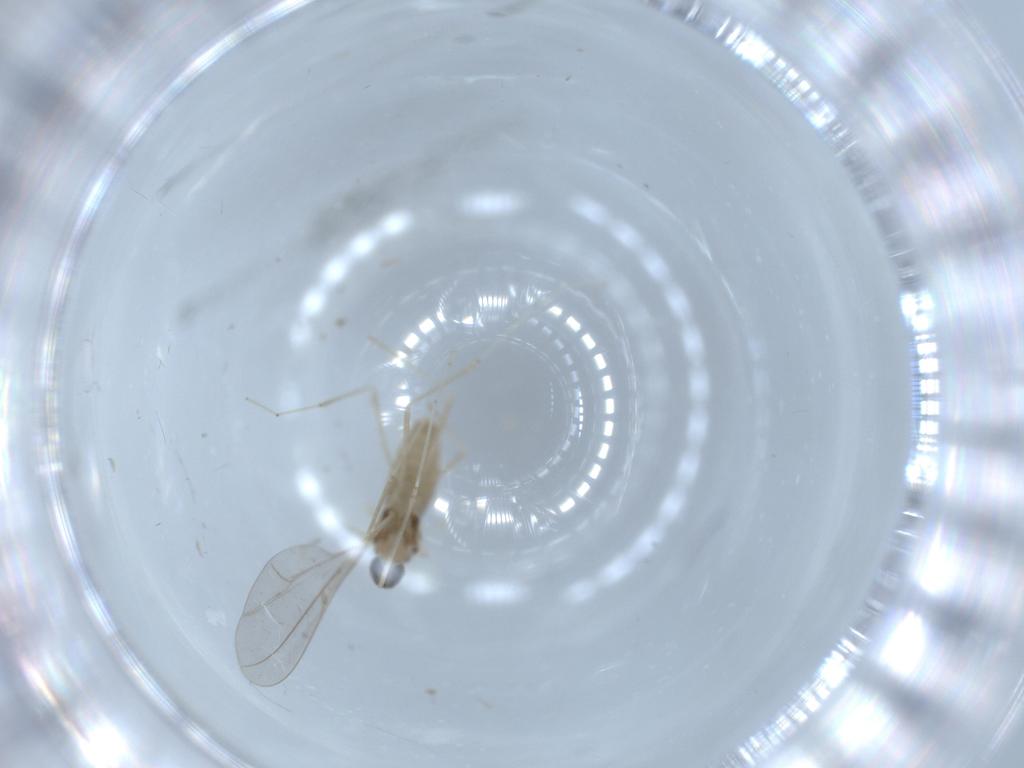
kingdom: Animalia
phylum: Arthropoda
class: Insecta
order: Diptera
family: Cecidomyiidae
